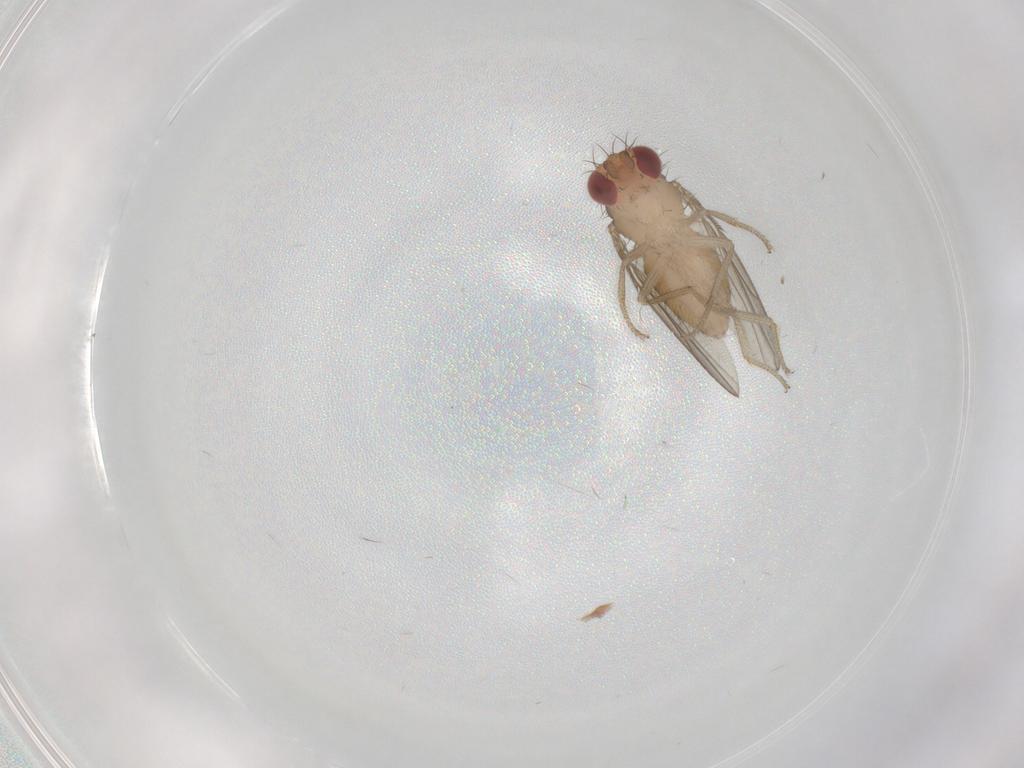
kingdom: Animalia
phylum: Arthropoda
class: Insecta
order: Diptera
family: Drosophilidae
